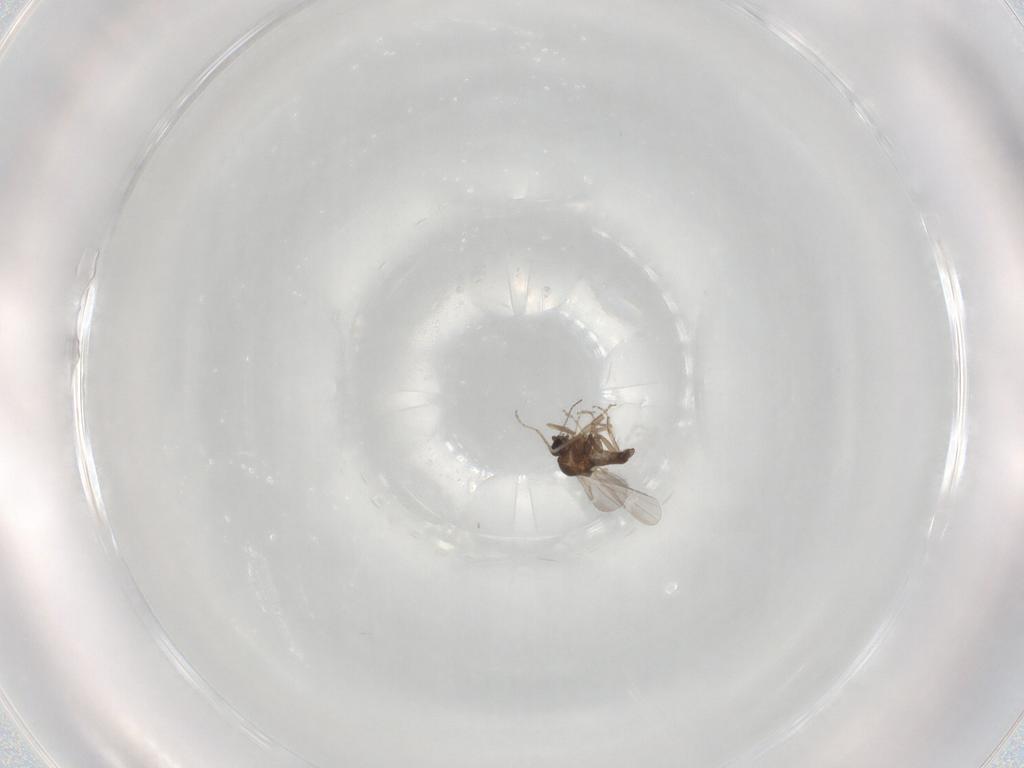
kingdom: Animalia
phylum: Arthropoda
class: Insecta
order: Diptera
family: Ceratopogonidae
